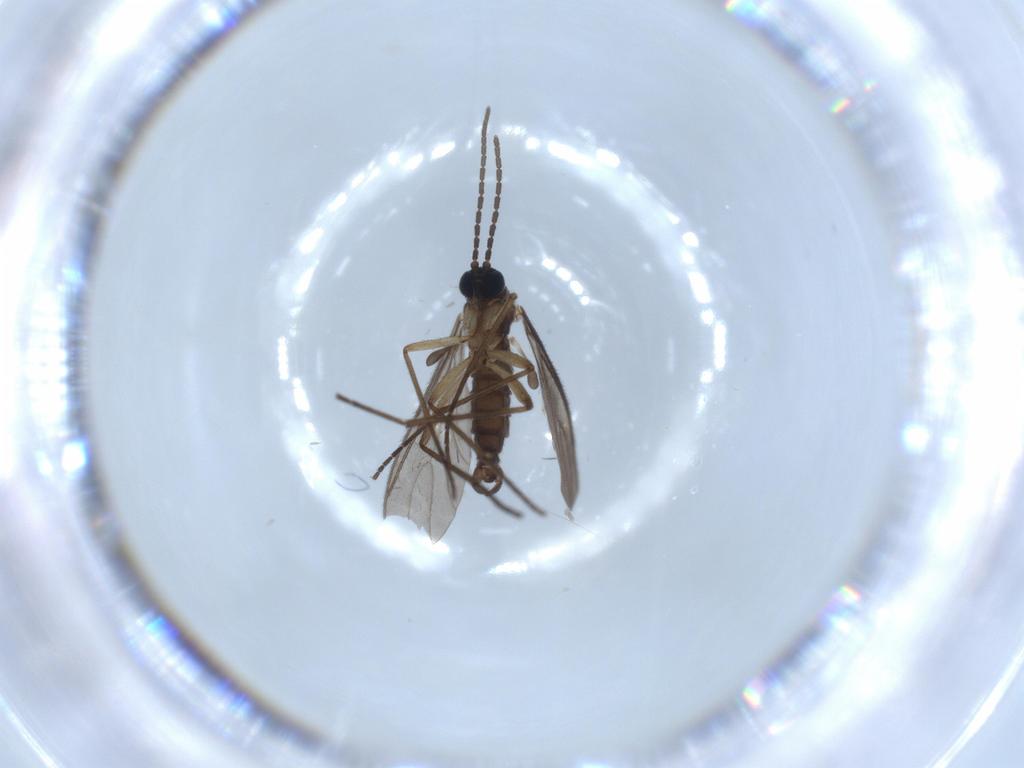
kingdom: Animalia
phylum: Arthropoda
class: Insecta
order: Diptera
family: Sciaridae
